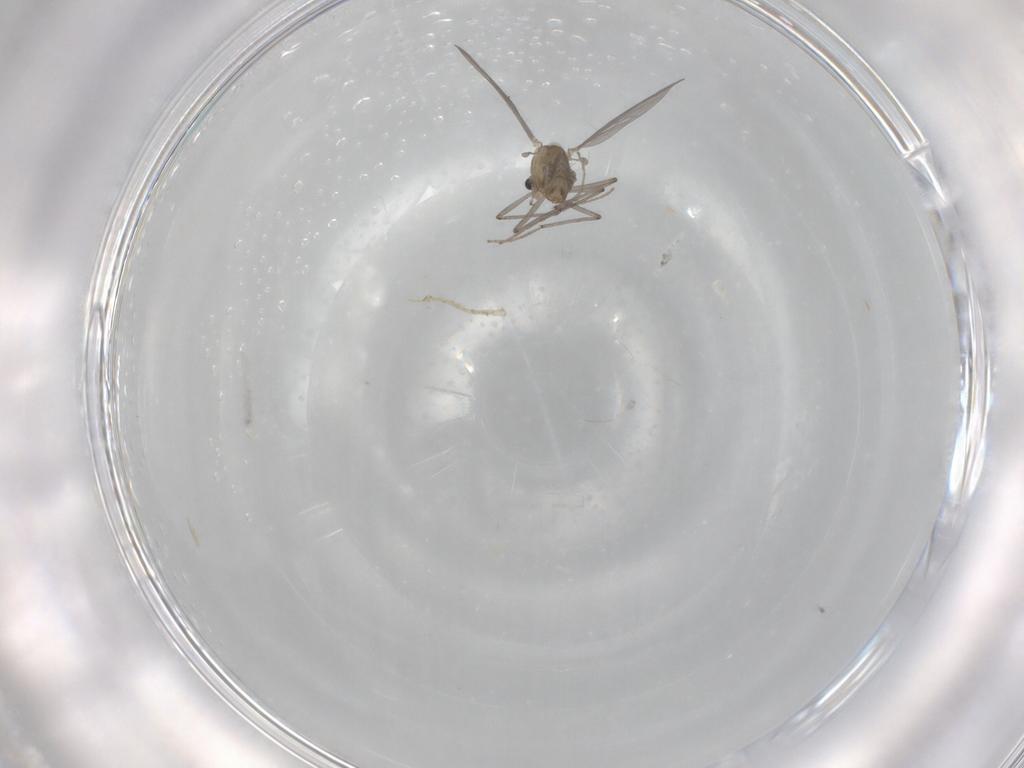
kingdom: Animalia
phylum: Arthropoda
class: Insecta
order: Diptera
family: Chironomidae
